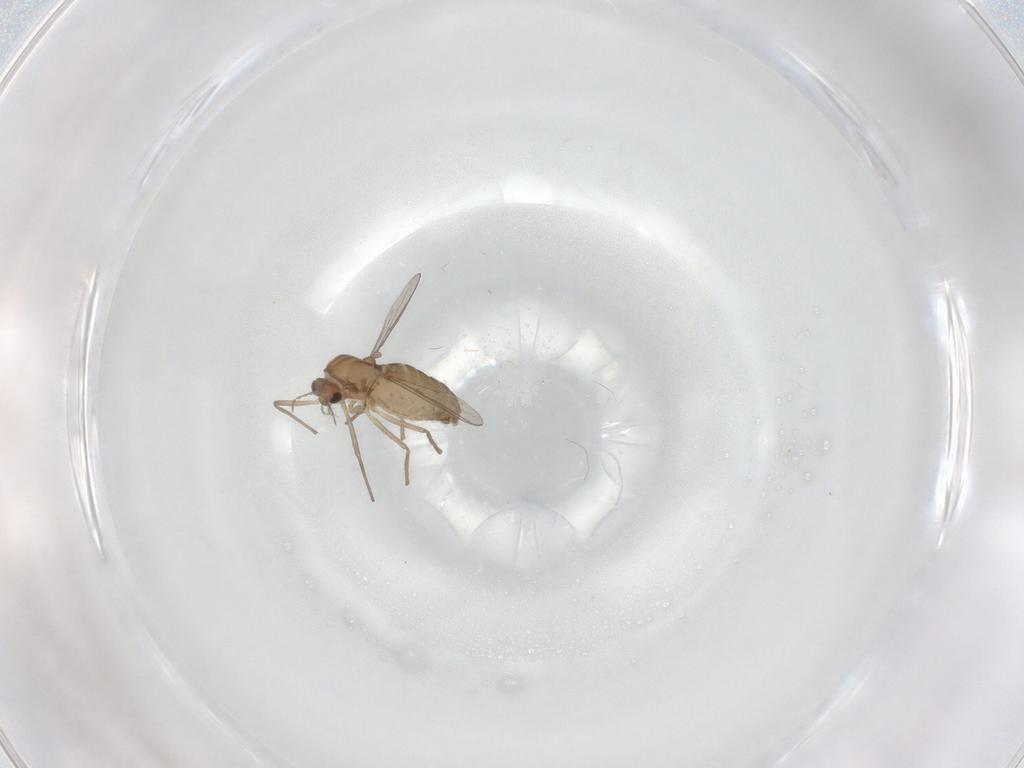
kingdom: Animalia
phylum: Arthropoda
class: Insecta
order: Diptera
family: Chironomidae
